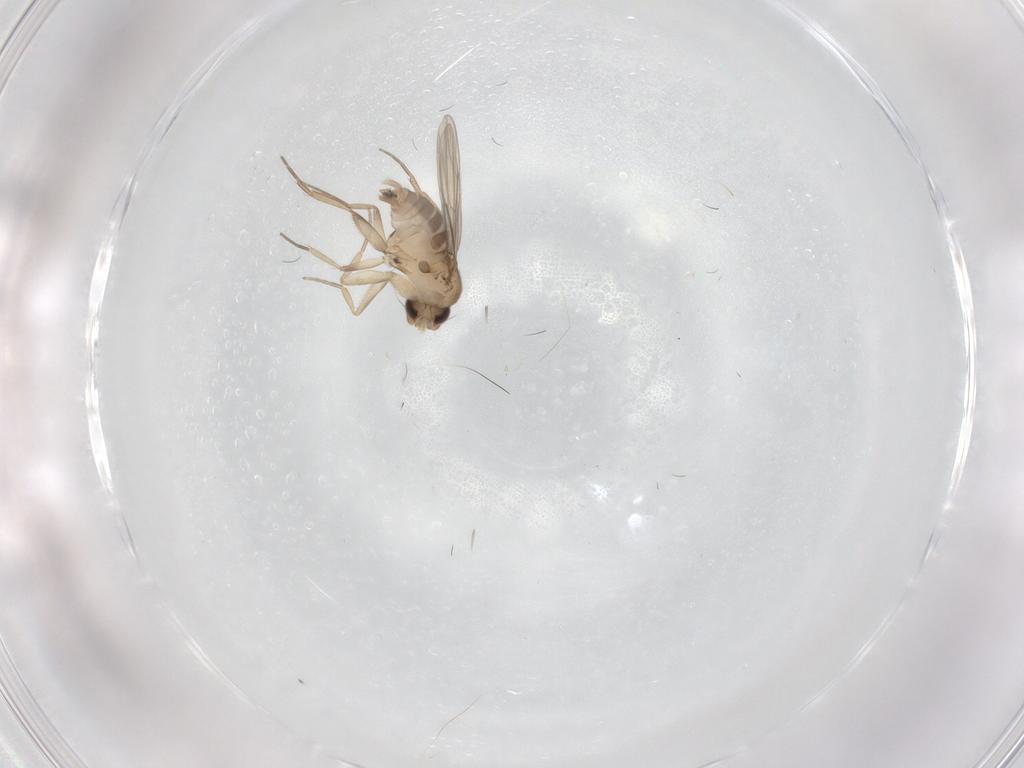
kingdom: Animalia
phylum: Arthropoda
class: Insecta
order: Diptera
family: Phoridae
